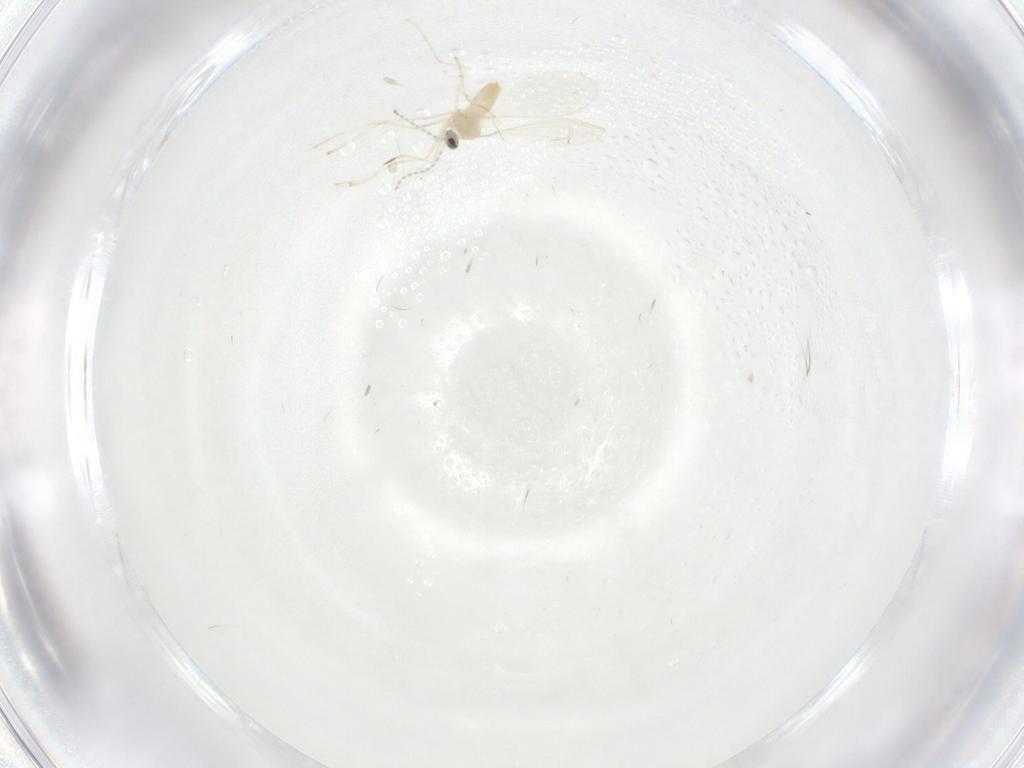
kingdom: Animalia
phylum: Arthropoda
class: Insecta
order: Diptera
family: Cecidomyiidae
